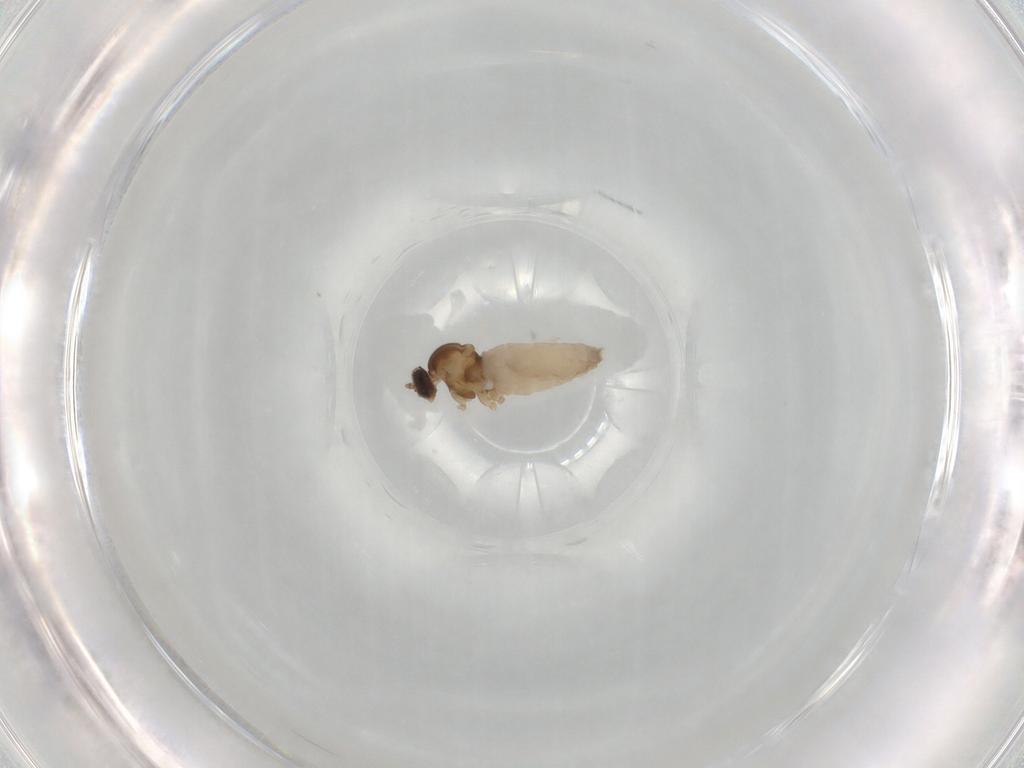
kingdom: Animalia
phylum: Arthropoda
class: Insecta
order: Diptera
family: Cecidomyiidae
